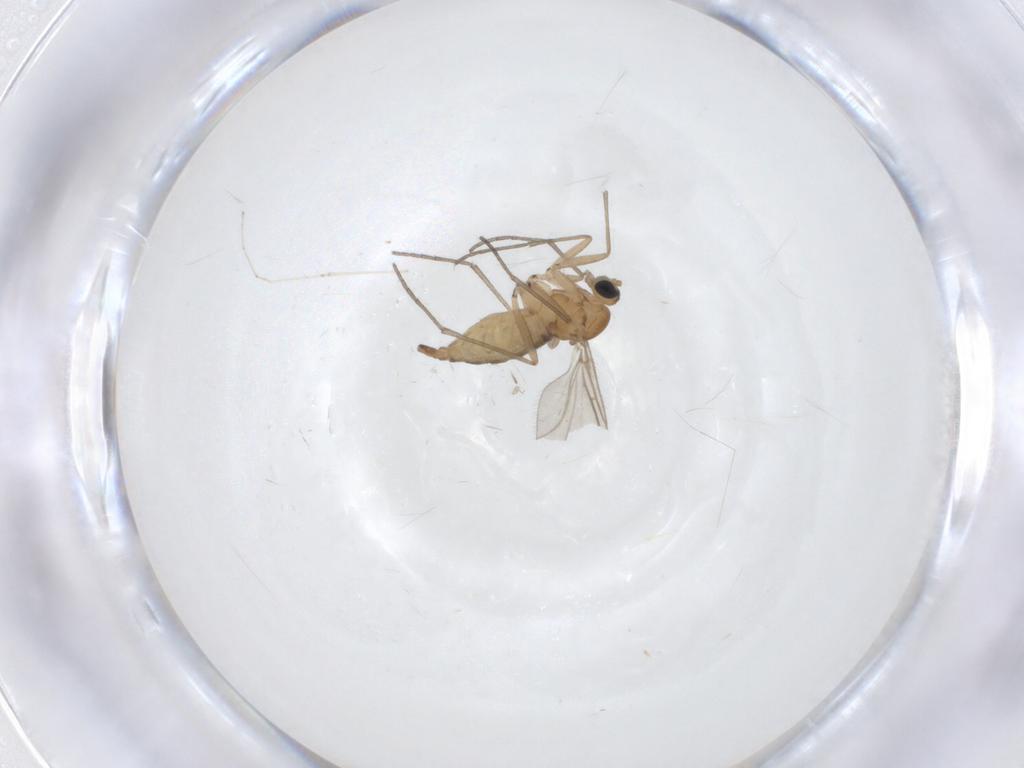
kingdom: Animalia
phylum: Arthropoda
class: Insecta
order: Diptera
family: Sciaridae
